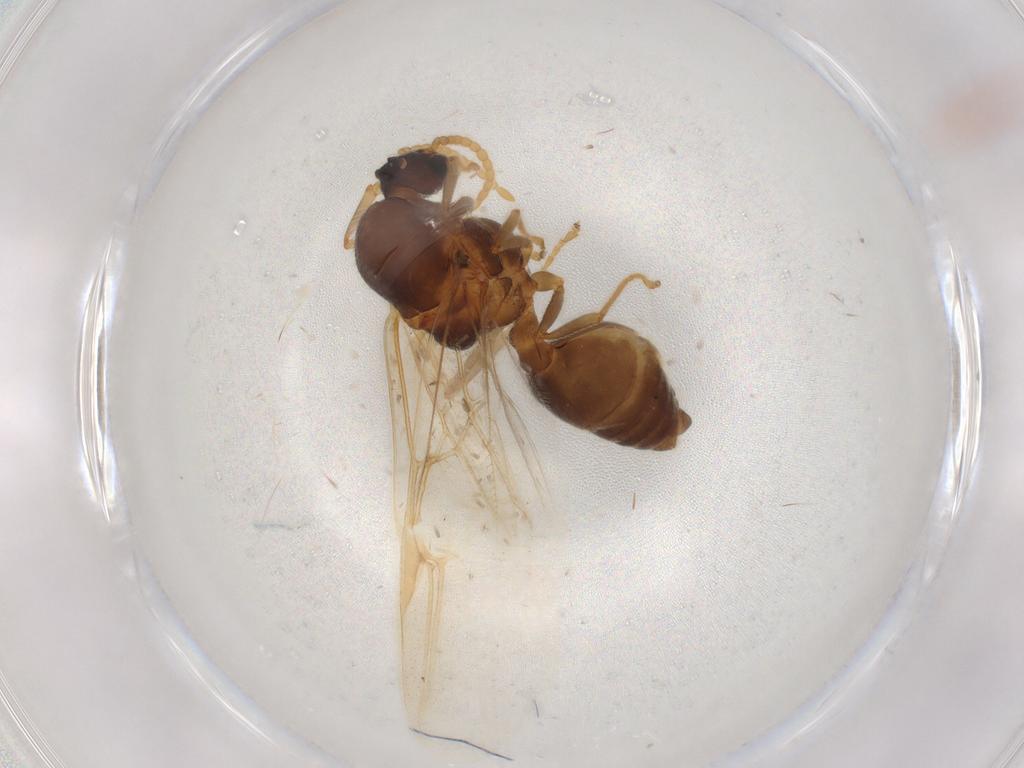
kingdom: Animalia
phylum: Arthropoda
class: Insecta
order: Hymenoptera
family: Formicidae
